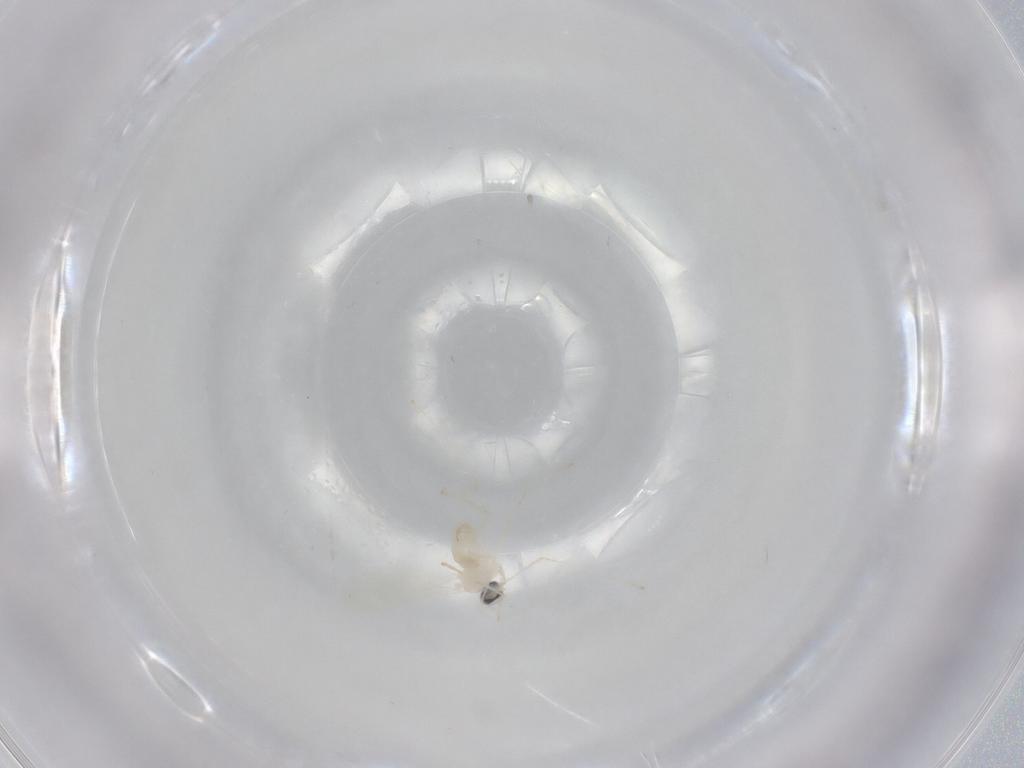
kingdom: Animalia
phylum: Arthropoda
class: Insecta
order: Diptera
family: Cecidomyiidae
